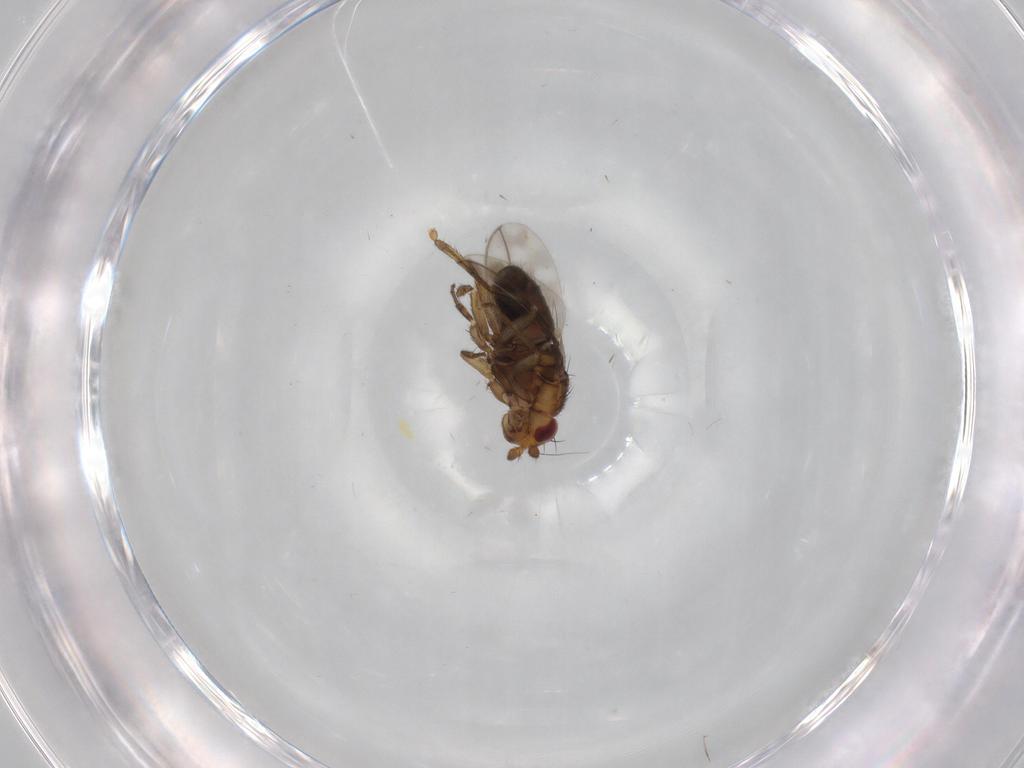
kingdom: Animalia
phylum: Arthropoda
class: Insecta
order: Diptera
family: Sphaeroceridae
